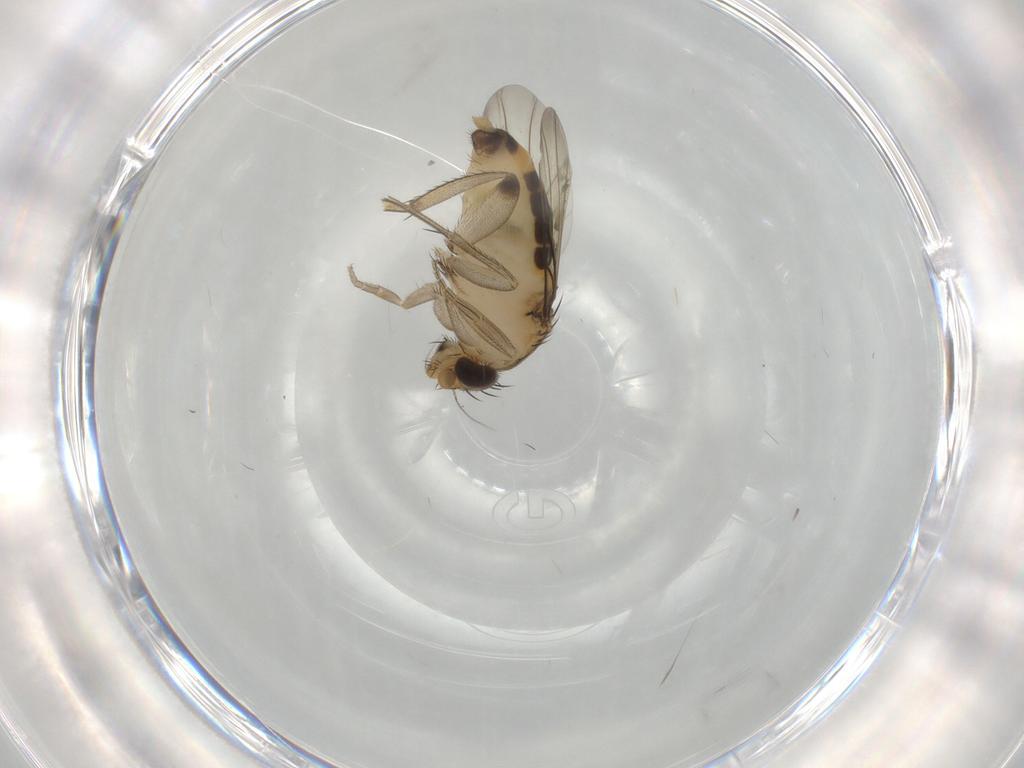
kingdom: Animalia
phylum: Arthropoda
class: Insecta
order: Diptera
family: Phoridae
